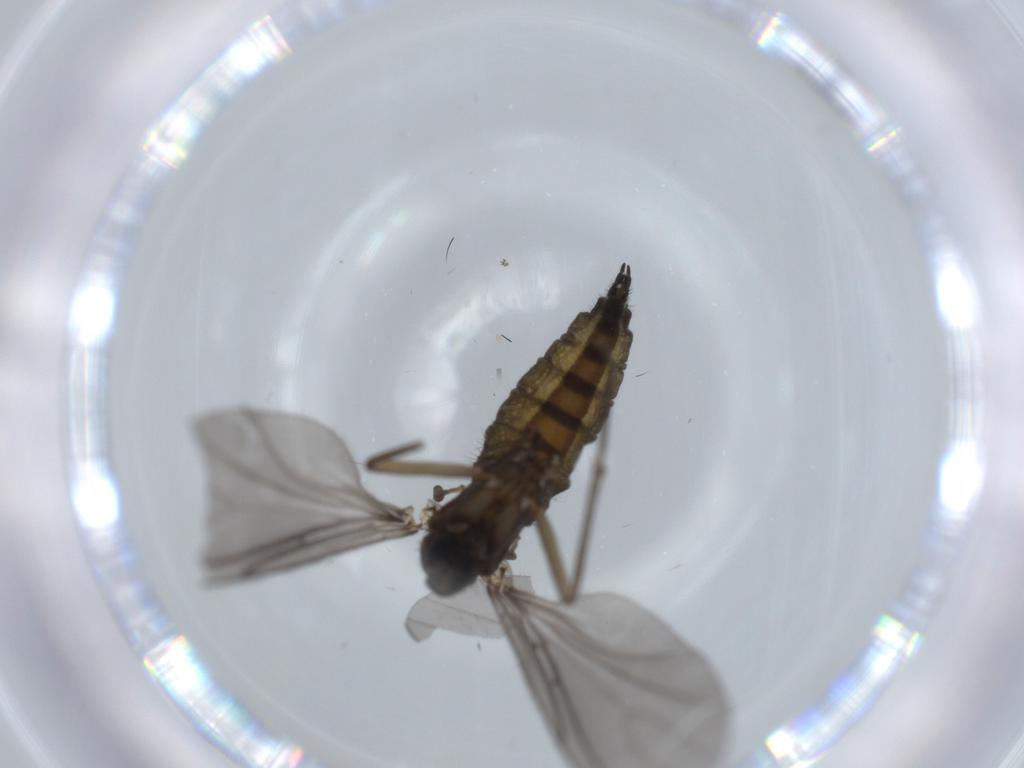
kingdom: Animalia
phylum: Arthropoda
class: Insecta
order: Diptera
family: Sciaridae
